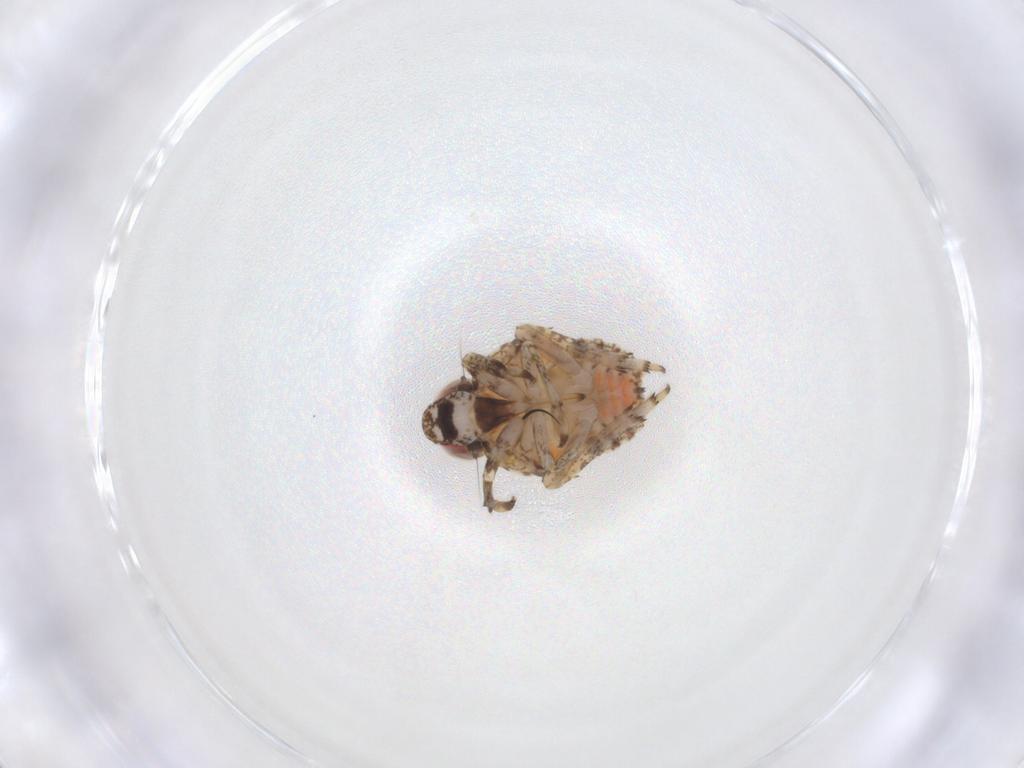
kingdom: Animalia
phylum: Arthropoda
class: Insecta
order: Hemiptera
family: Issidae
